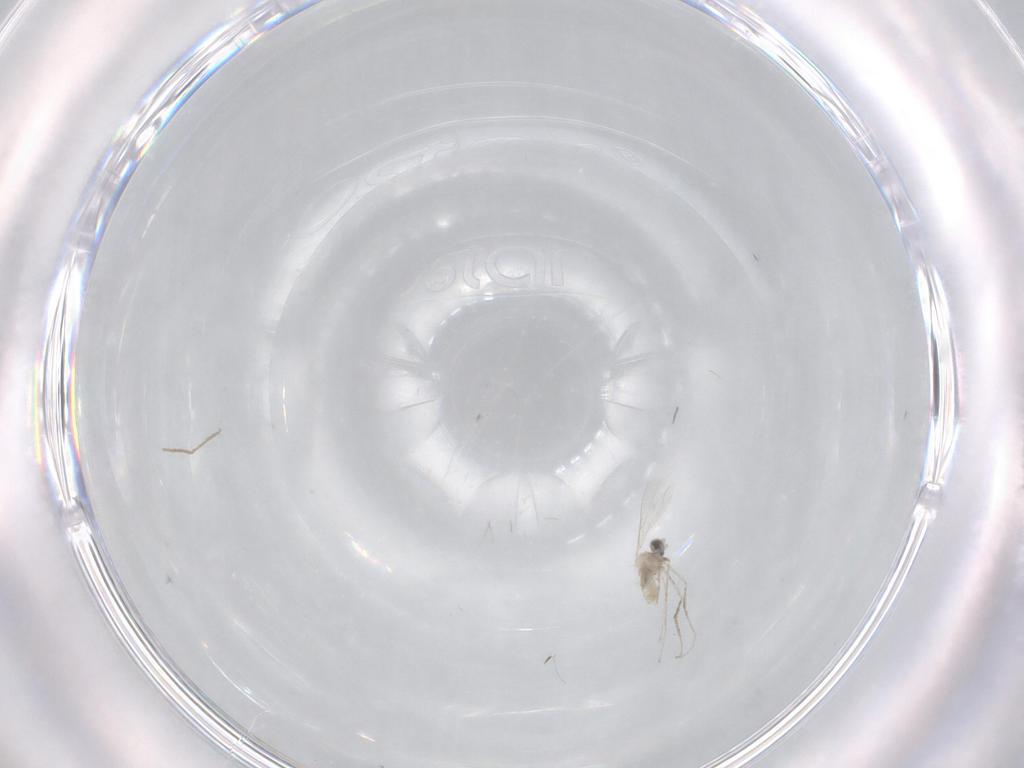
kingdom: Animalia
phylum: Arthropoda
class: Insecta
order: Diptera
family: Chironomidae
